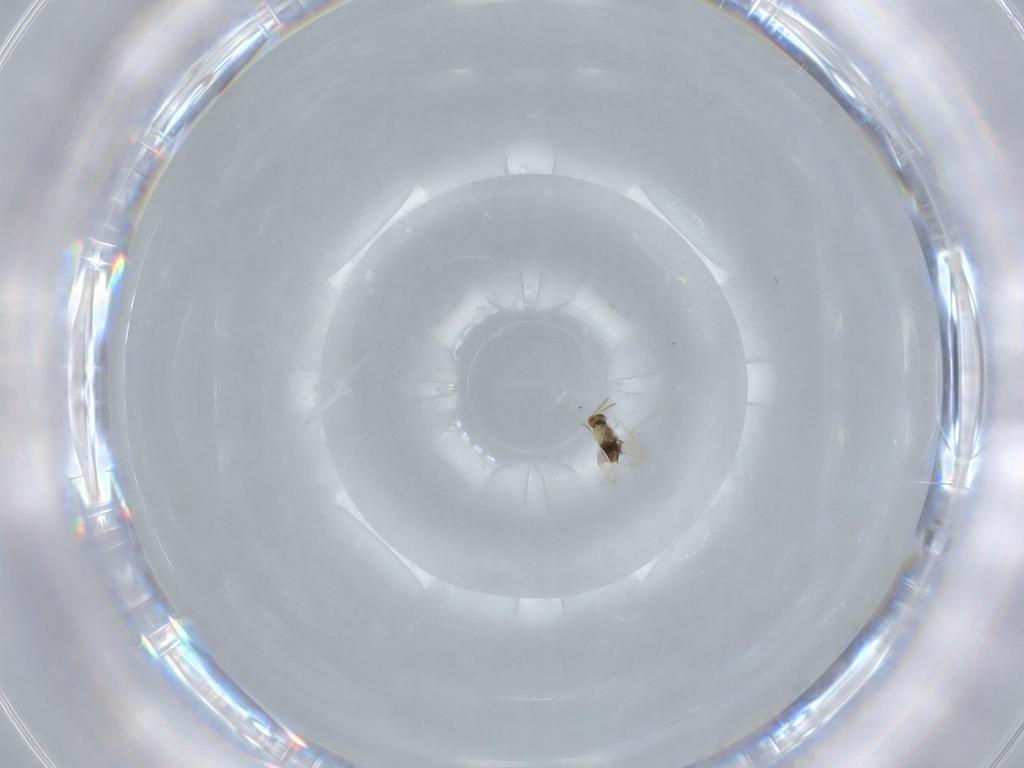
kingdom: Animalia
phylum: Arthropoda
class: Insecta
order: Hymenoptera
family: Aphelinidae
